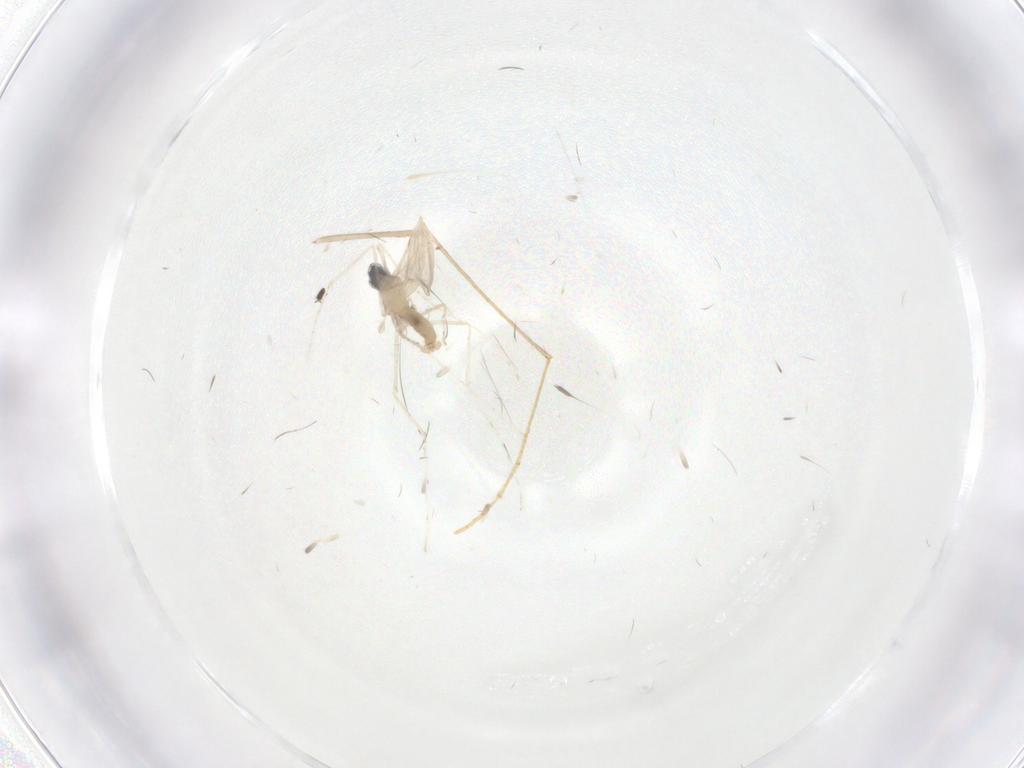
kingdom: Animalia
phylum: Arthropoda
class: Insecta
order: Diptera
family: Cecidomyiidae
